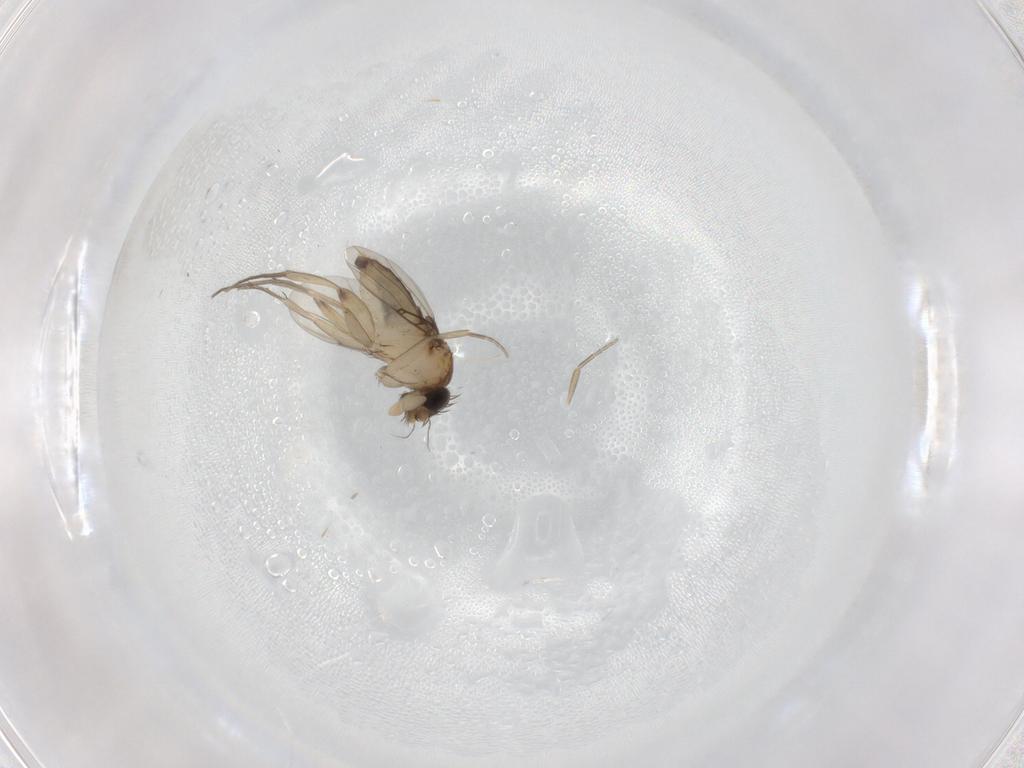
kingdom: Animalia
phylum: Arthropoda
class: Insecta
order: Diptera
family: Phoridae
